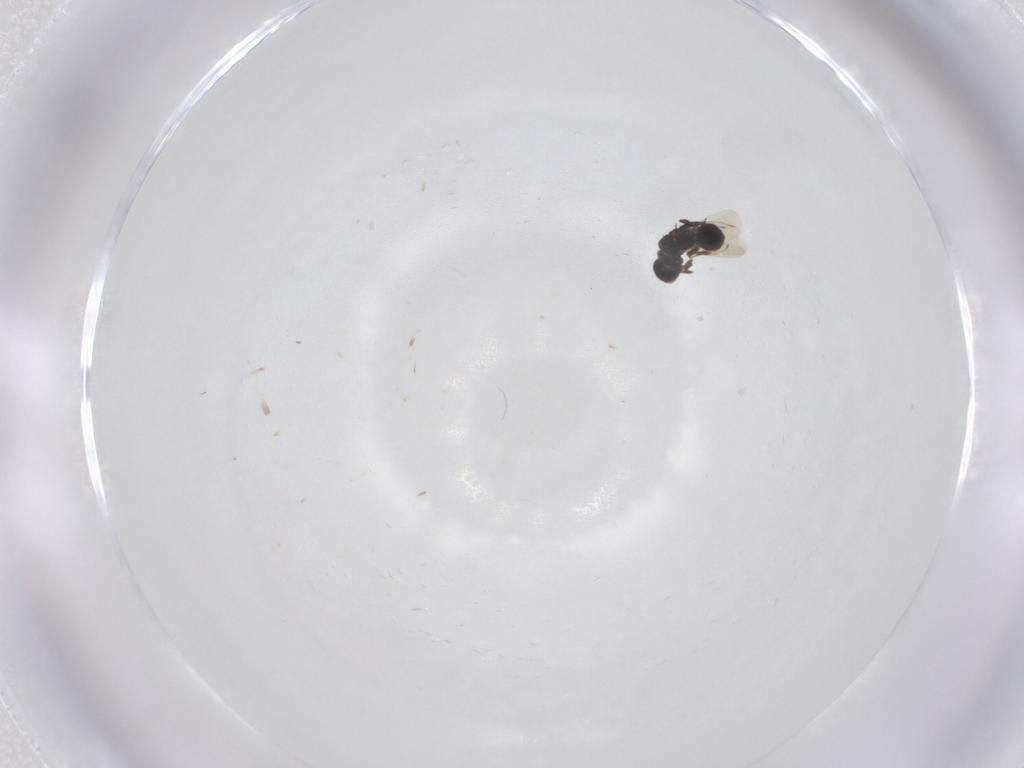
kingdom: Animalia
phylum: Arthropoda
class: Insecta
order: Hymenoptera
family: Platygastridae
